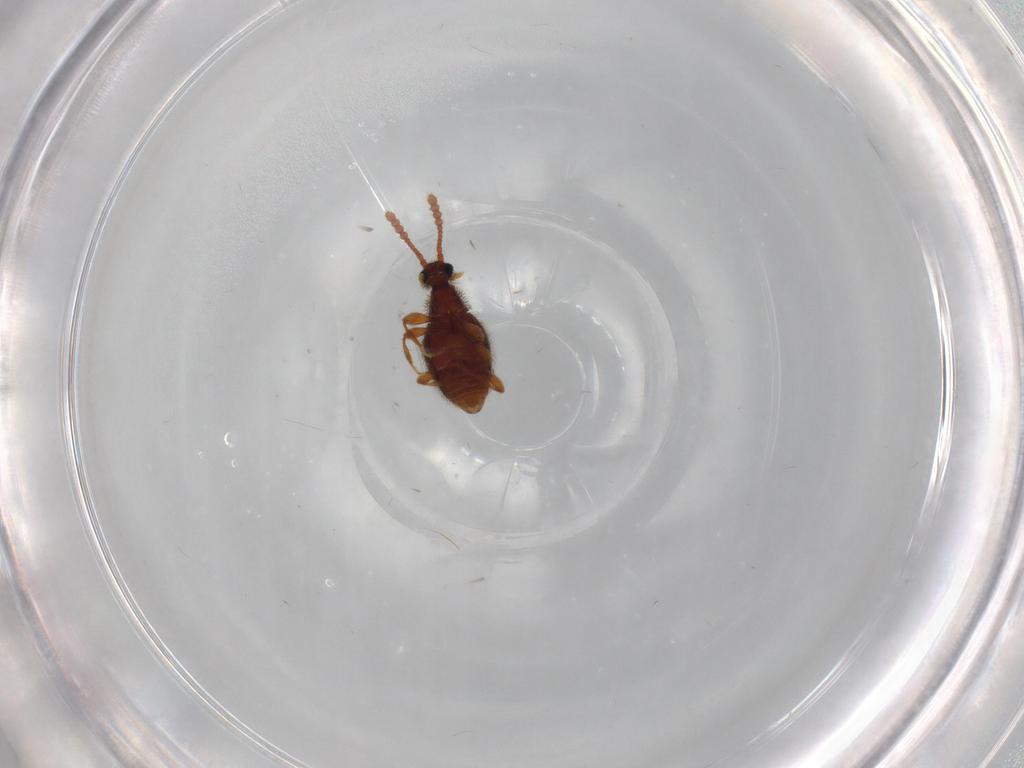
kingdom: Animalia
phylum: Arthropoda
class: Insecta
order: Coleoptera
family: Staphylinidae
